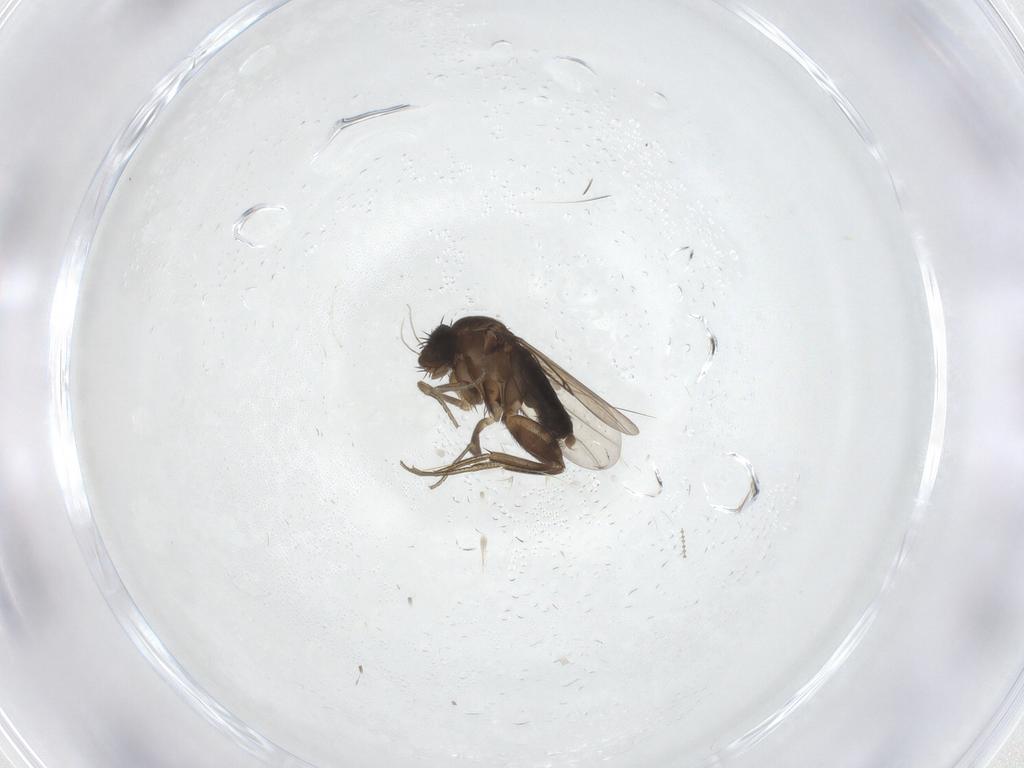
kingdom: Animalia
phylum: Arthropoda
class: Insecta
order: Diptera
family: Phoridae
